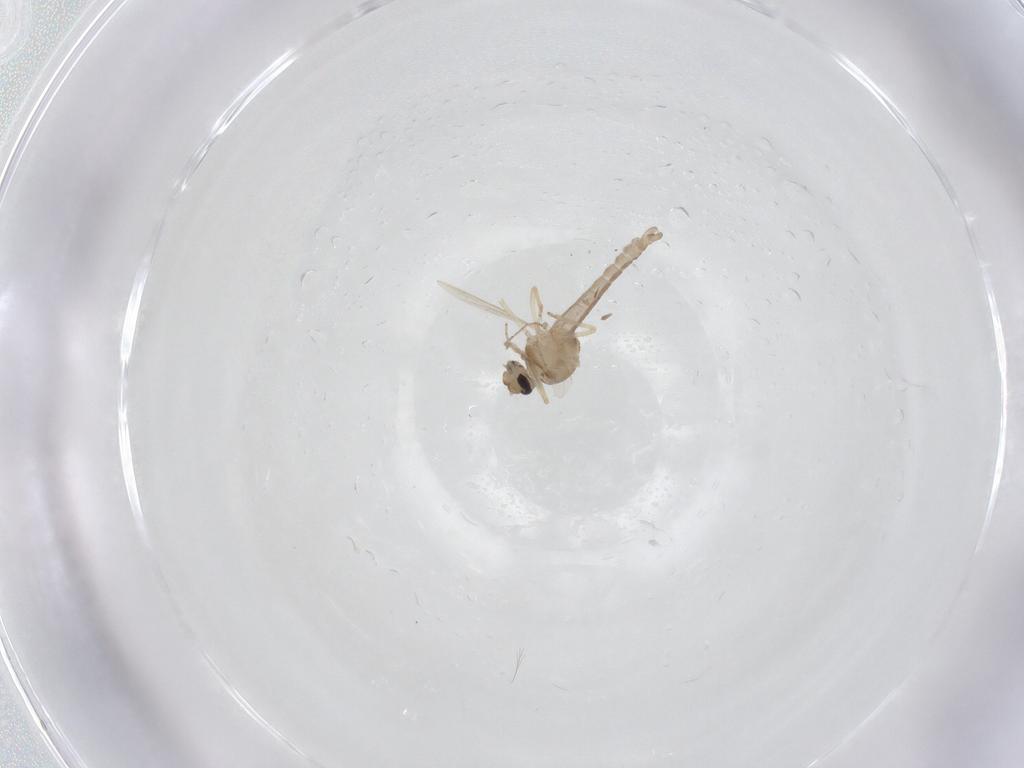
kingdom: Animalia
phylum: Arthropoda
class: Insecta
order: Diptera
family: Ceratopogonidae
